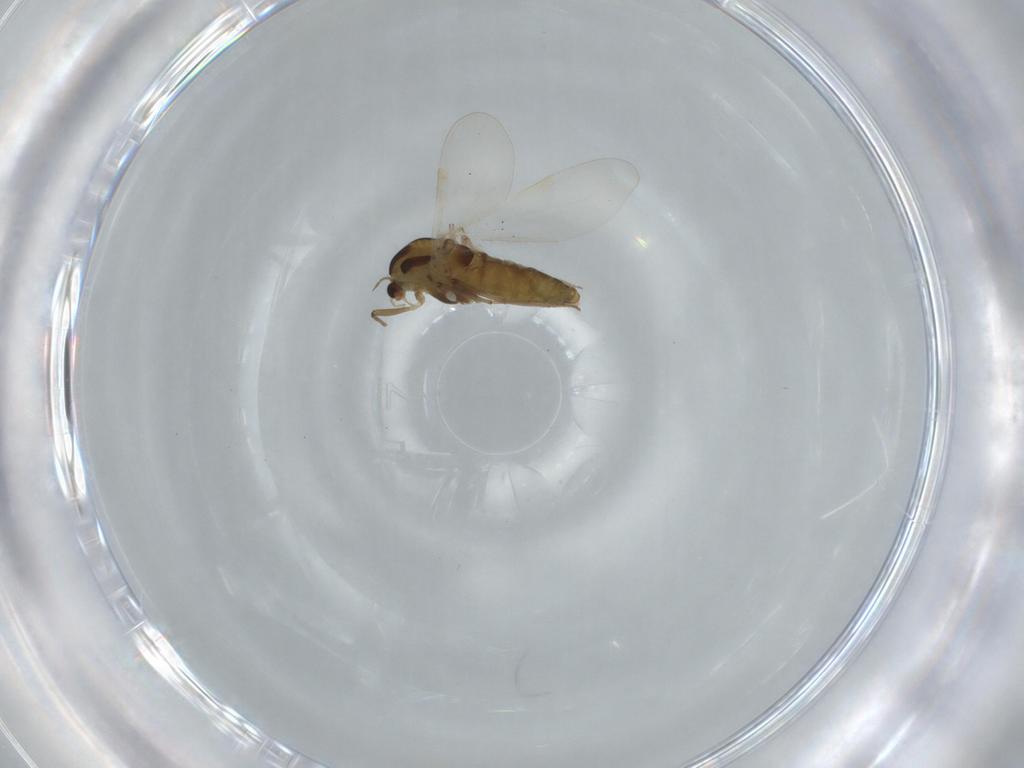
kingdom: Animalia
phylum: Arthropoda
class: Insecta
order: Diptera
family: Chironomidae
